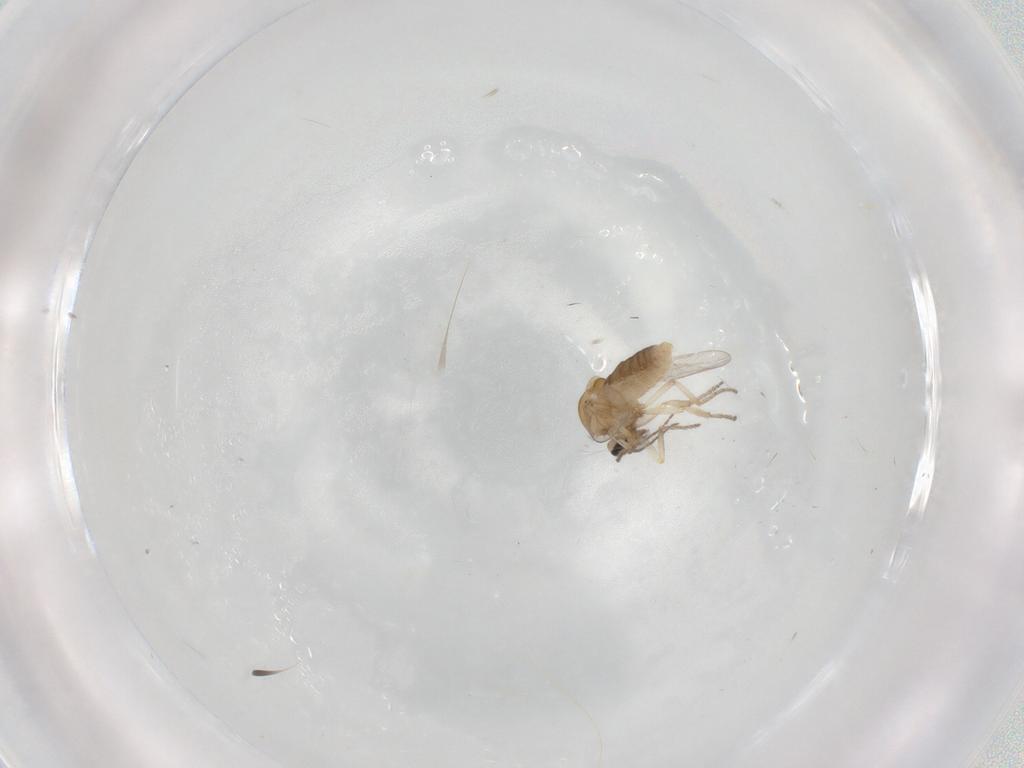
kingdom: Animalia
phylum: Arthropoda
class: Insecta
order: Diptera
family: Ceratopogonidae
